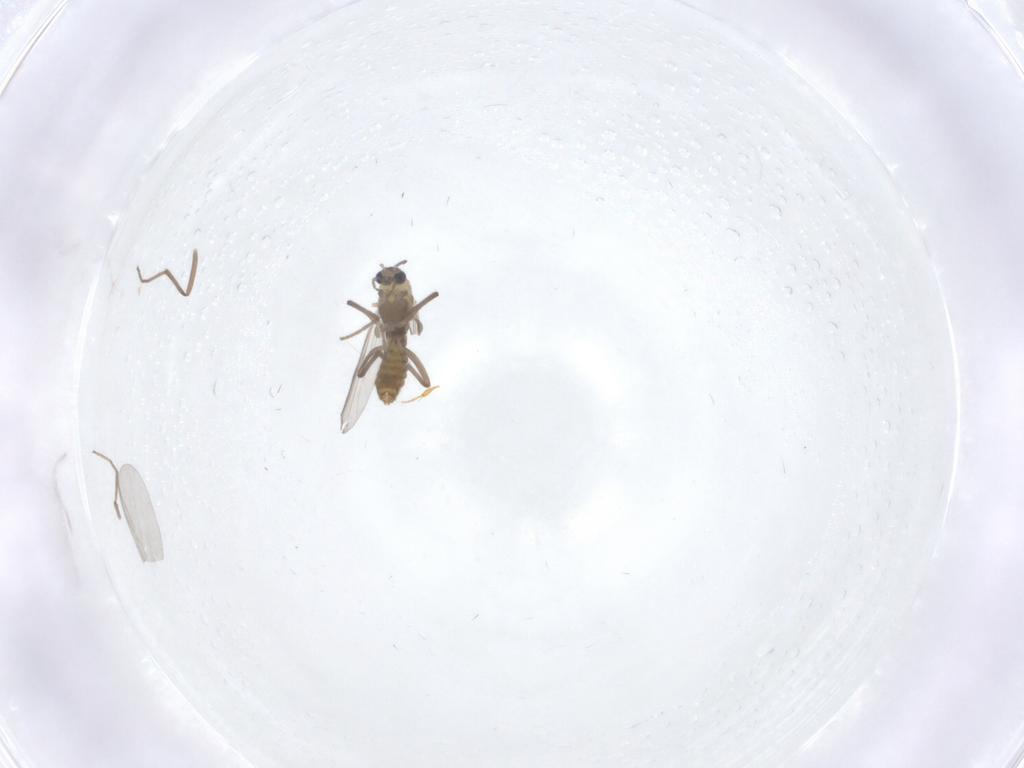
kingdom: Animalia
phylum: Arthropoda
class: Insecta
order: Diptera
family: Chironomidae
